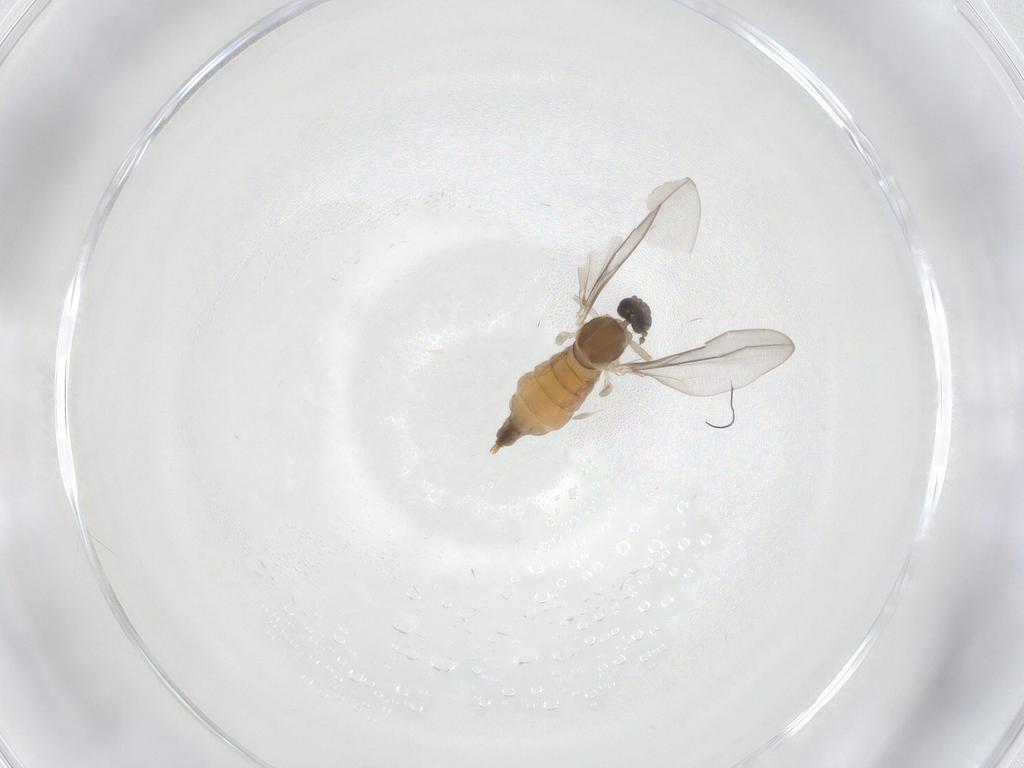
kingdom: Animalia
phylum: Arthropoda
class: Insecta
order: Diptera
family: Cecidomyiidae
